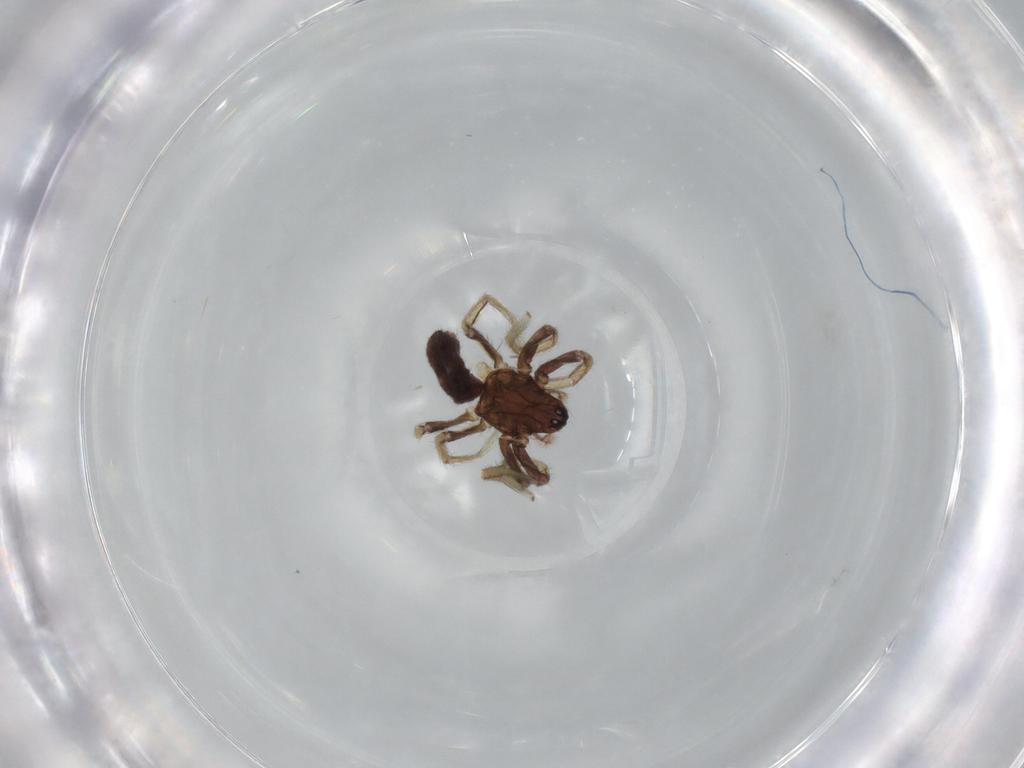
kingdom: Animalia
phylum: Arthropoda
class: Arachnida
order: Araneae
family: Corinnidae
